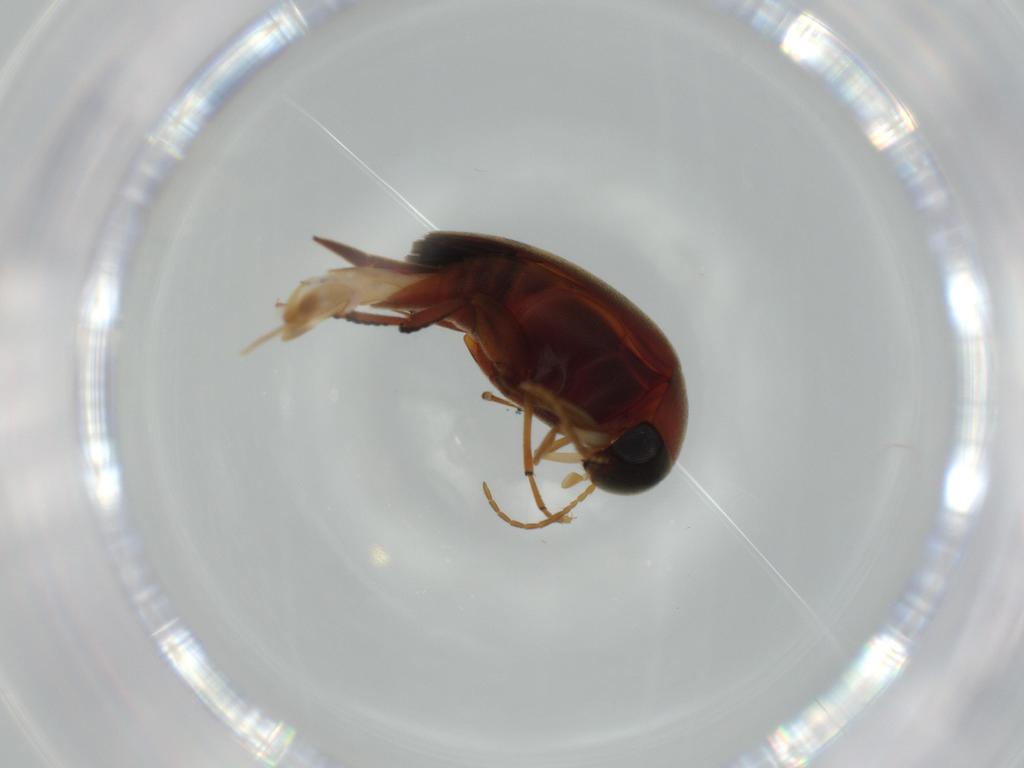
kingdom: Animalia
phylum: Arthropoda
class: Insecta
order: Coleoptera
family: Mordellidae
